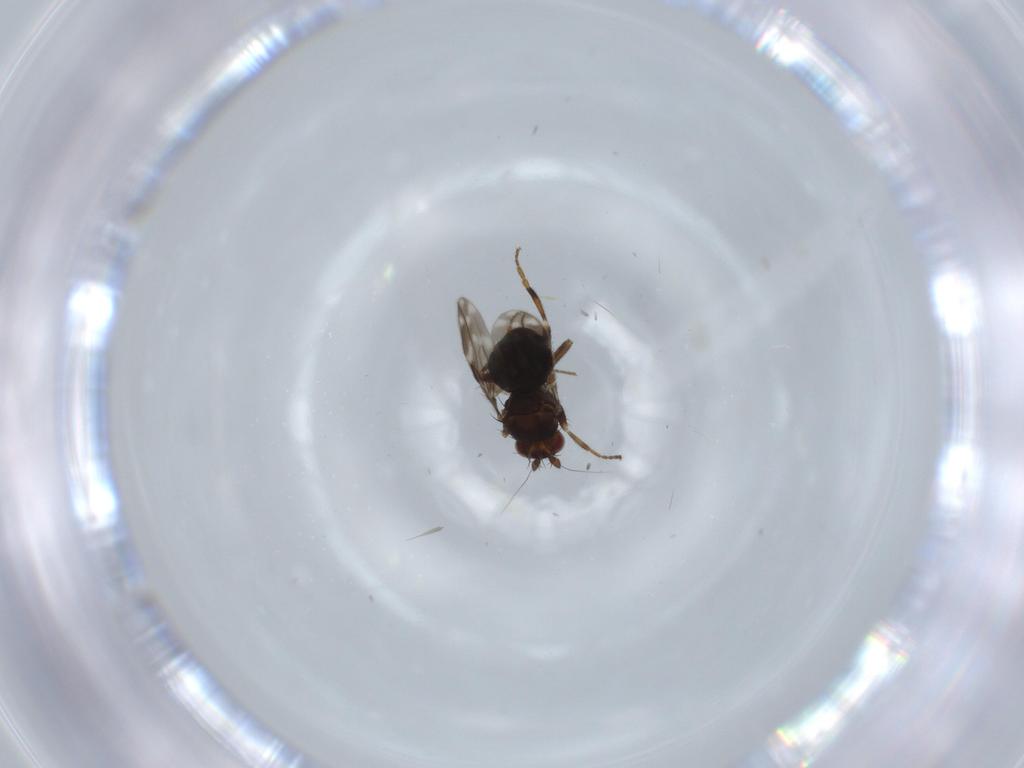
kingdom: Animalia
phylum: Arthropoda
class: Insecta
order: Diptera
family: Sphaeroceridae
